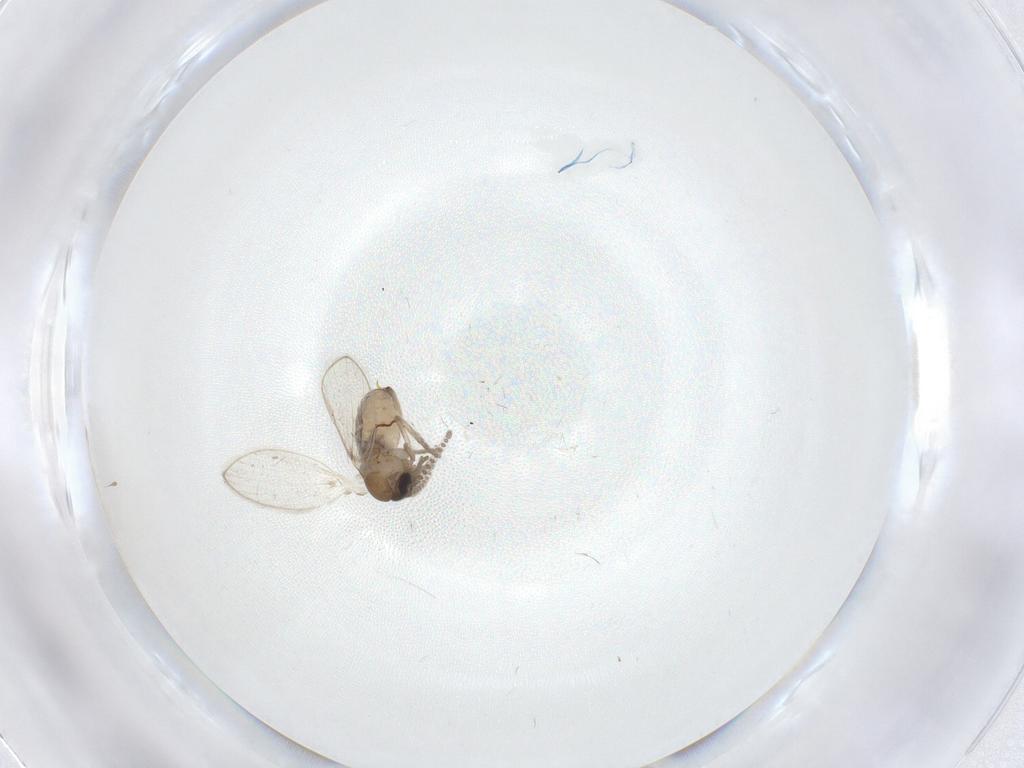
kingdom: Animalia
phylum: Arthropoda
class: Insecta
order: Diptera
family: Psychodidae
